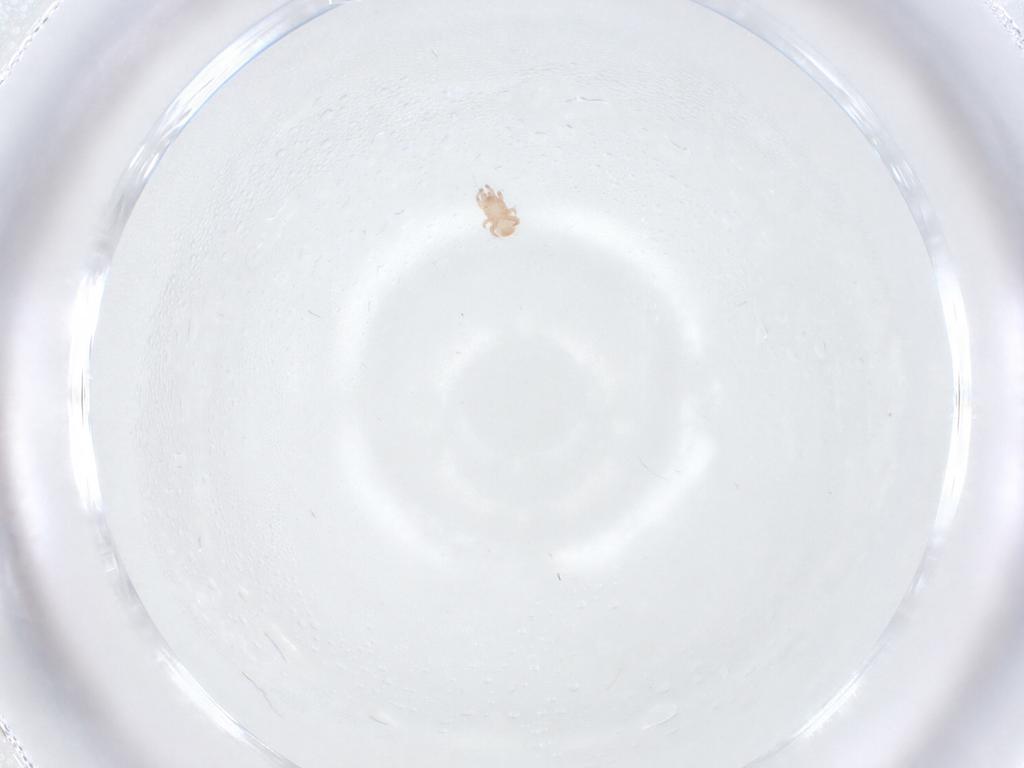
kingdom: Animalia
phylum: Arthropoda
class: Arachnida
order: Mesostigmata
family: Digamasellidae
